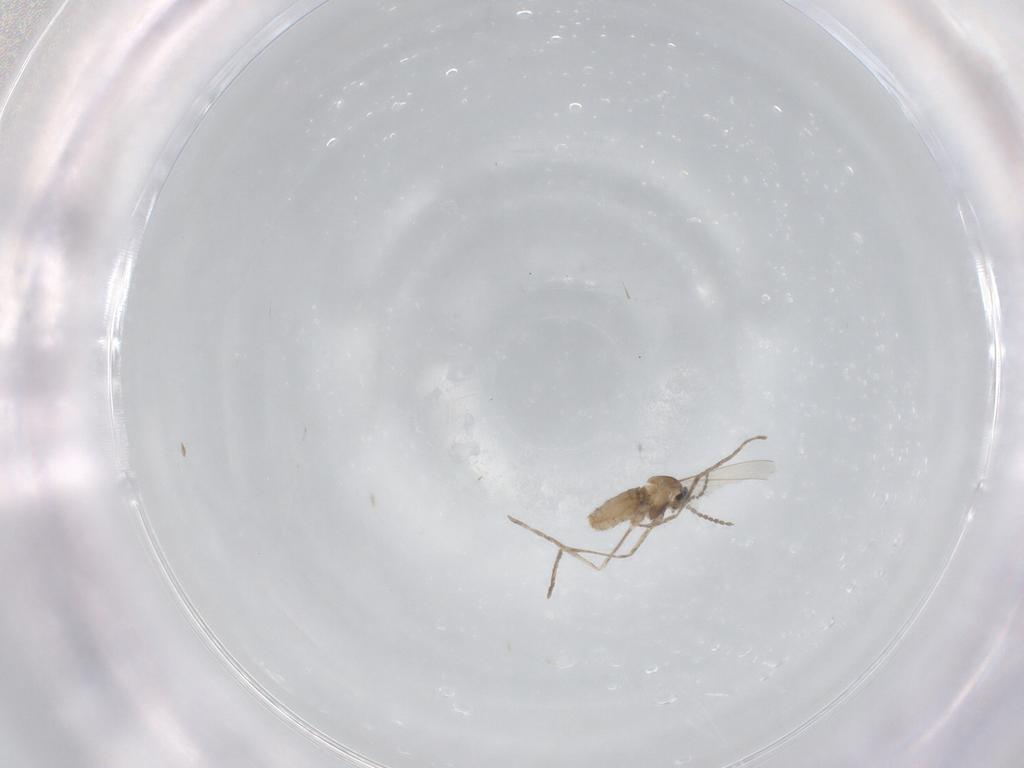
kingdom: Animalia
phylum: Arthropoda
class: Insecta
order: Diptera
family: Cecidomyiidae
